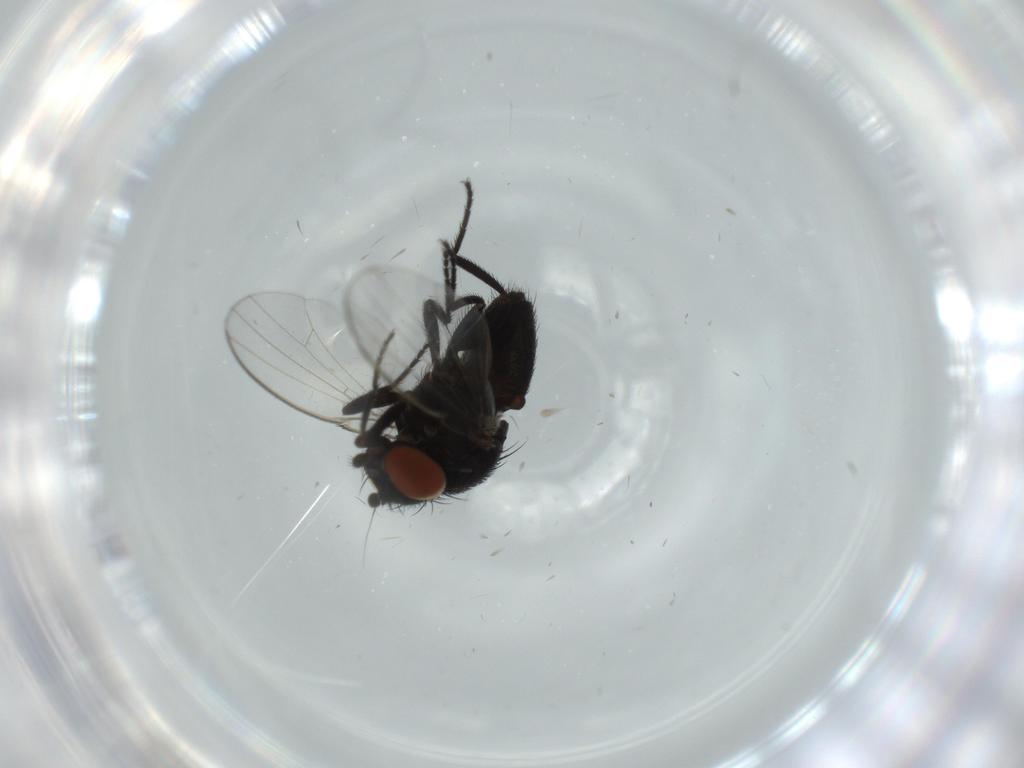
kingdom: Animalia
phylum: Arthropoda
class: Insecta
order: Diptera
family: Milichiidae
